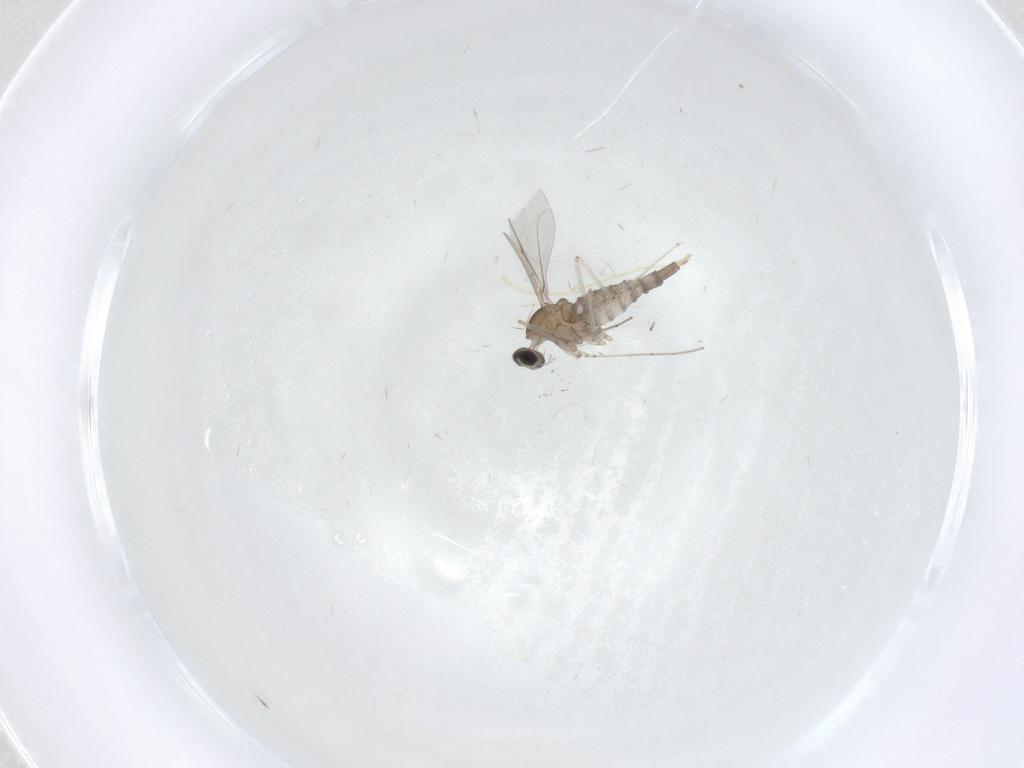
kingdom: Animalia
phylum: Arthropoda
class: Insecta
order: Diptera
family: Cecidomyiidae
